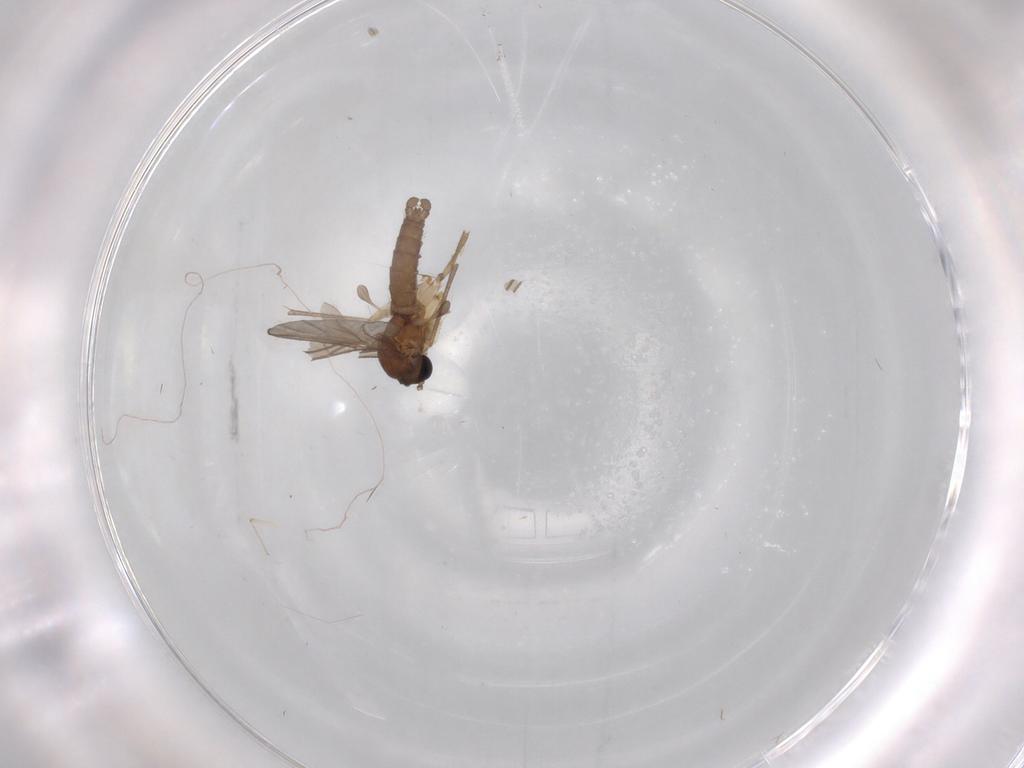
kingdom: Animalia
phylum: Arthropoda
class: Insecta
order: Diptera
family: Sciaridae
